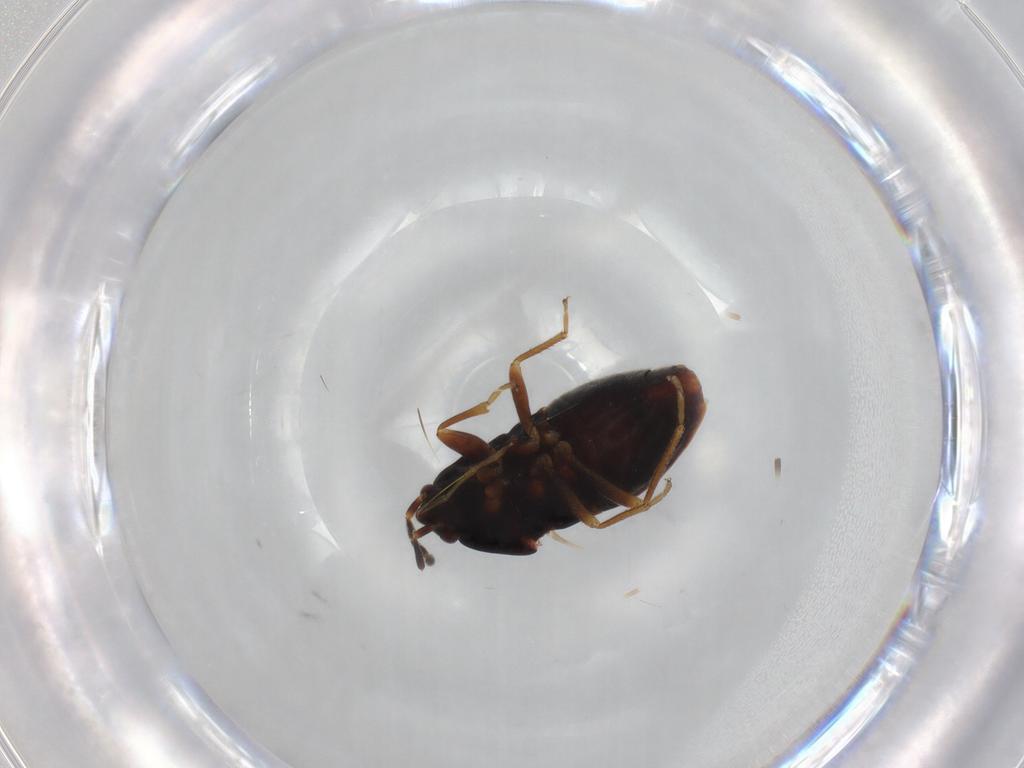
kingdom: Animalia
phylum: Arthropoda
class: Insecta
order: Hemiptera
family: Rhyparochromidae
